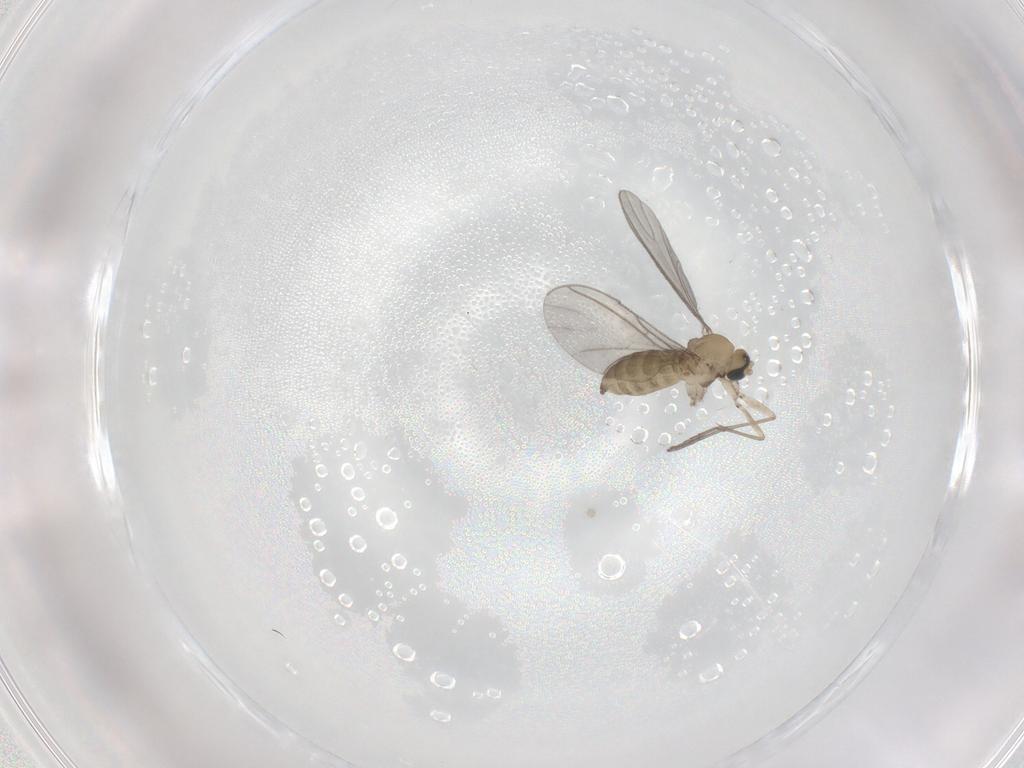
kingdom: Animalia
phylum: Arthropoda
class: Insecta
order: Diptera
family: Sciaridae
